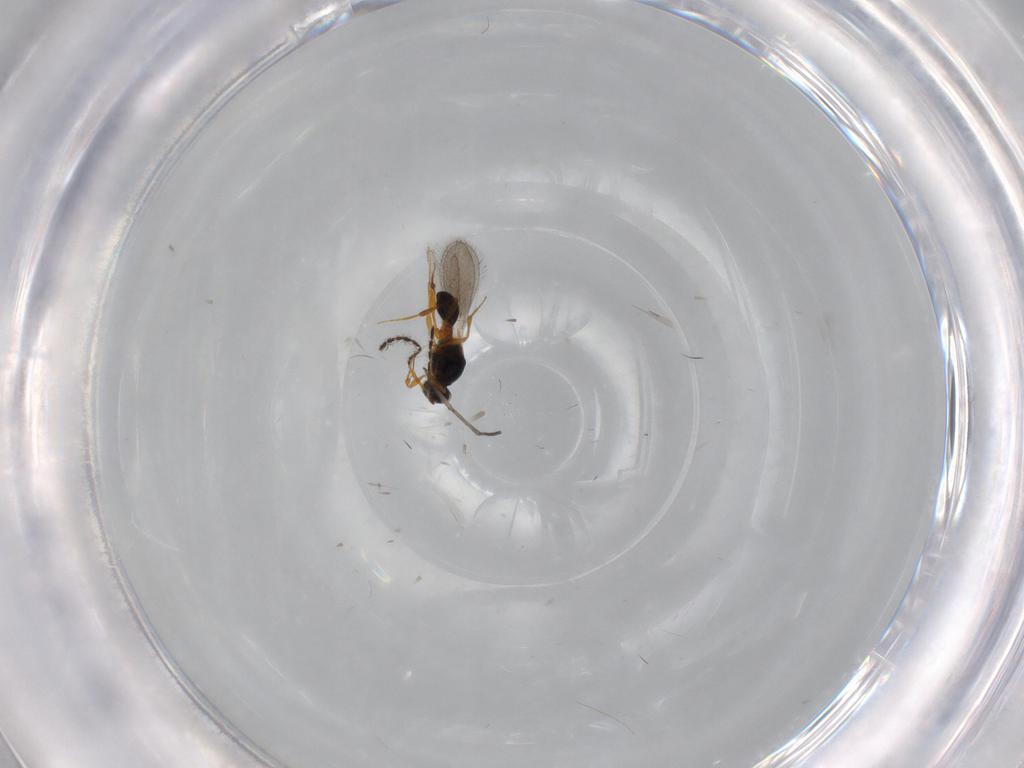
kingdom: Animalia
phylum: Arthropoda
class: Insecta
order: Hymenoptera
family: Platygastridae
